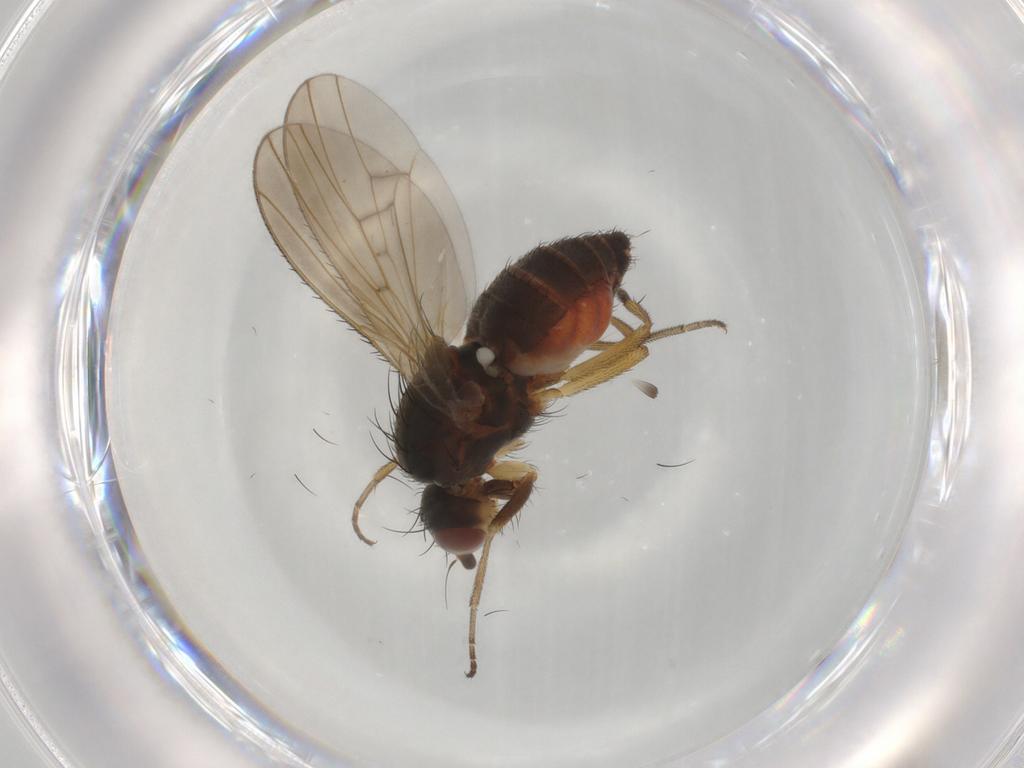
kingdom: Animalia
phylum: Arthropoda
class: Insecta
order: Diptera
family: Heleomyzidae
